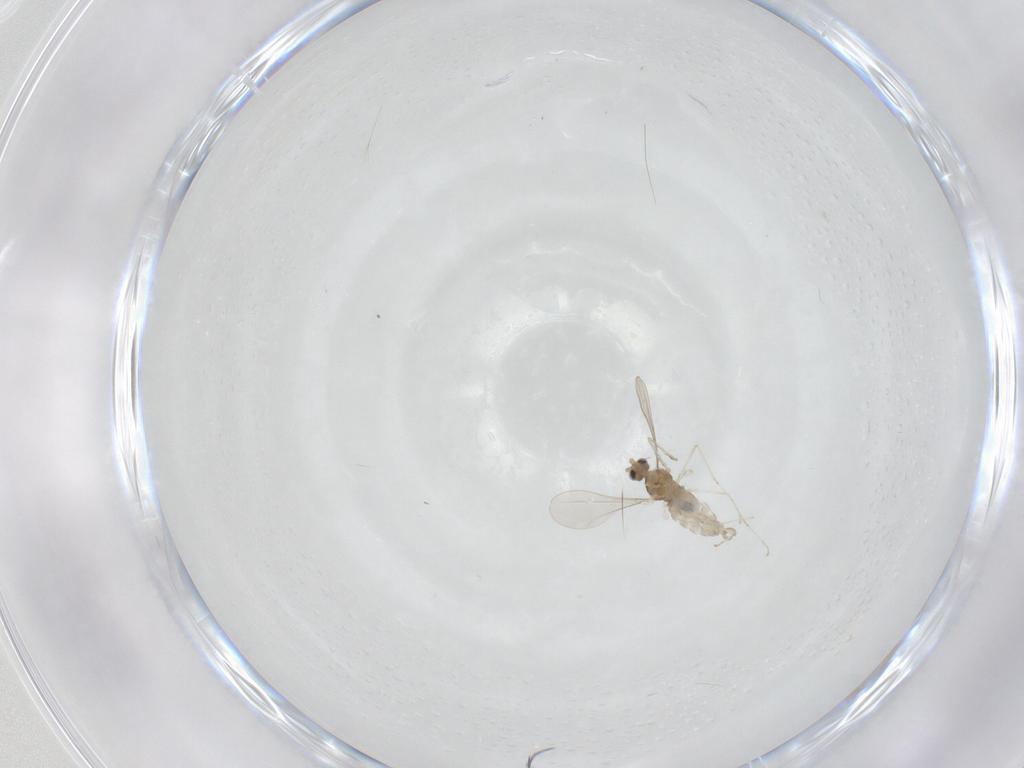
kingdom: Animalia
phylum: Arthropoda
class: Insecta
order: Diptera
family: Cecidomyiidae
